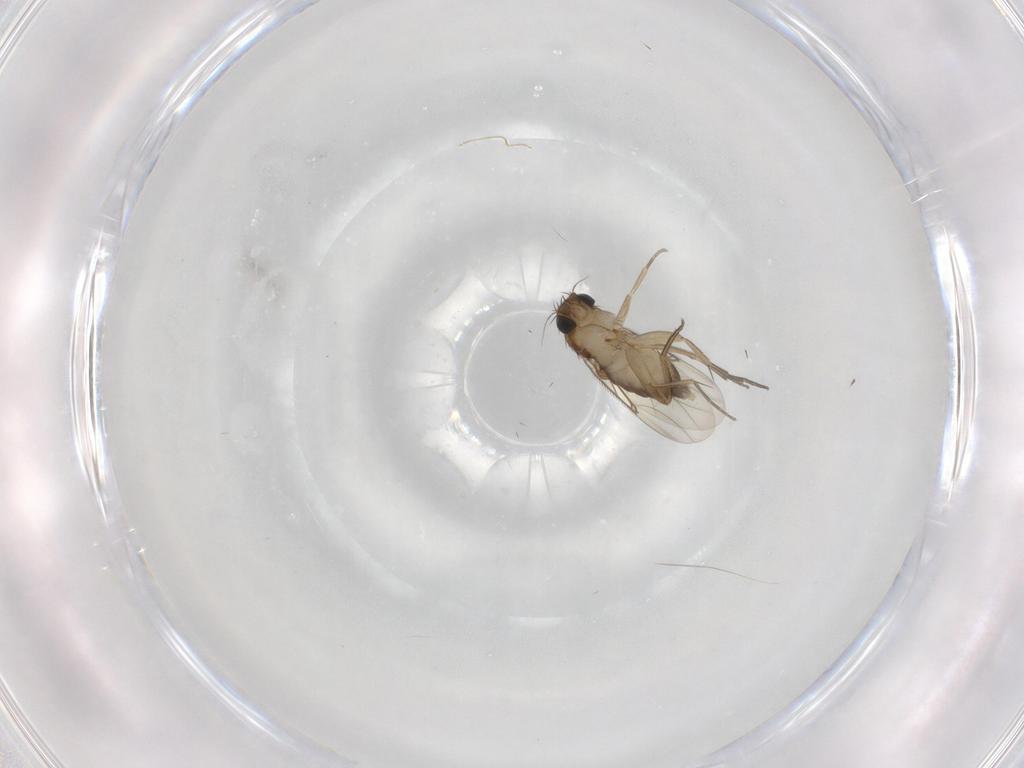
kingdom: Animalia
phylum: Arthropoda
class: Insecta
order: Diptera
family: Phoridae
